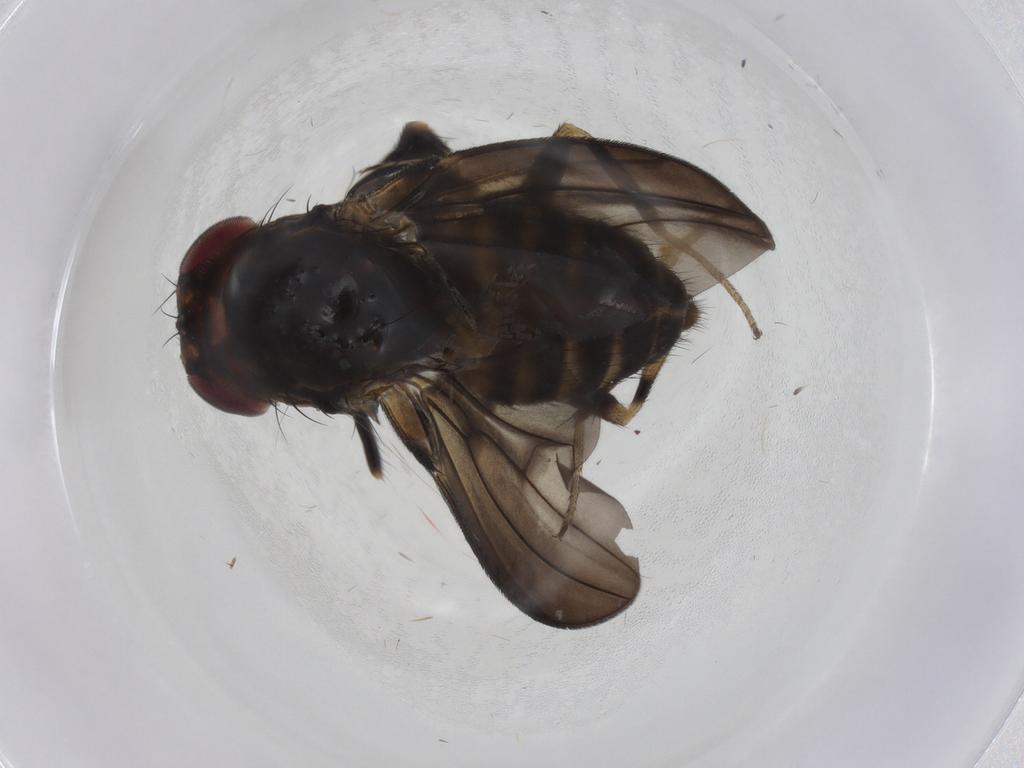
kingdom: Animalia
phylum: Arthropoda
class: Insecta
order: Diptera
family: Drosophilidae
